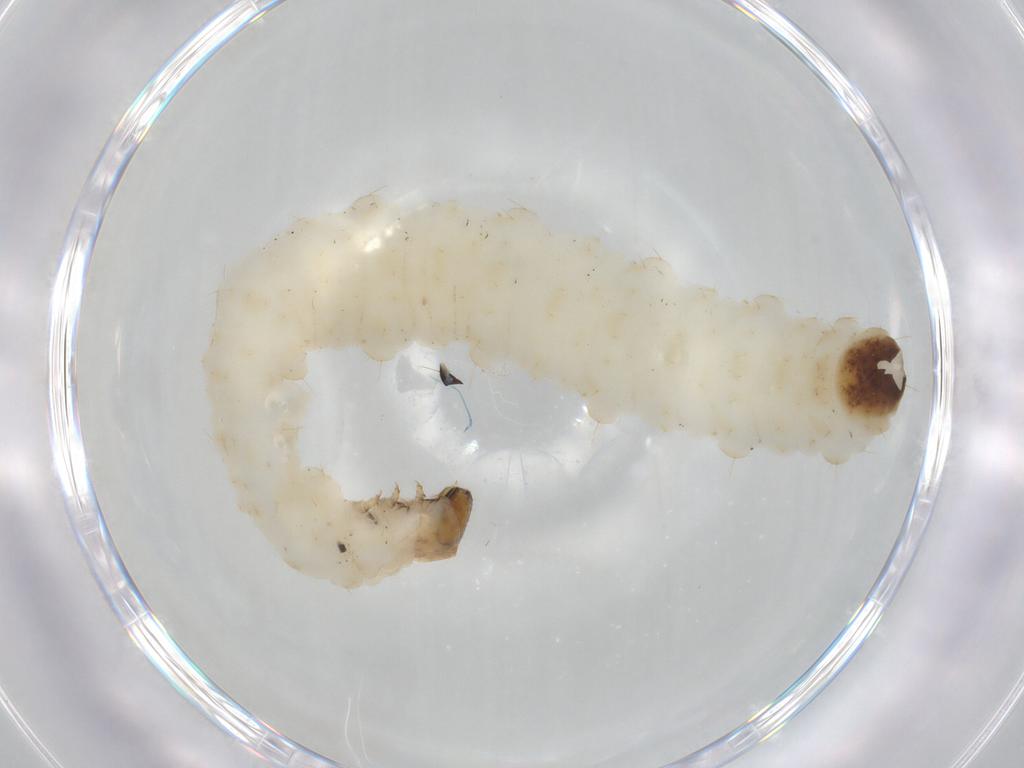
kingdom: Animalia
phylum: Arthropoda
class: Insecta
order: Coleoptera
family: Chrysomelidae
